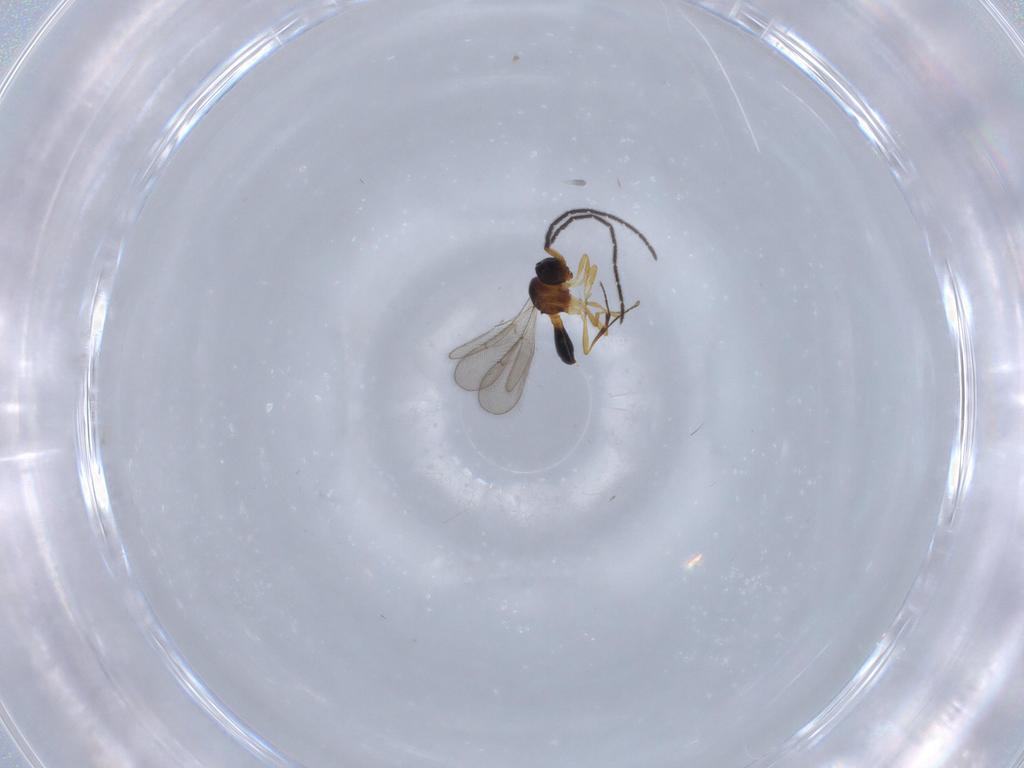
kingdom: Animalia
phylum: Arthropoda
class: Insecta
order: Hymenoptera
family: Scelionidae
